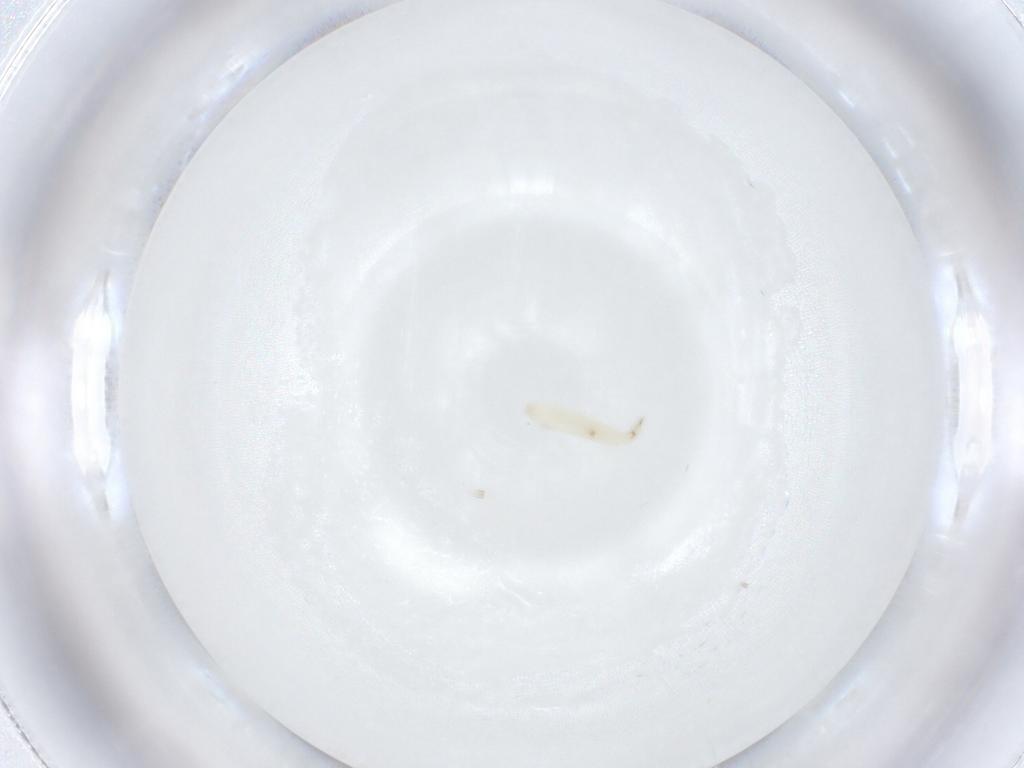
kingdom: Animalia
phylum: Arthropoda
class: Insecta
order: Diptera
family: Sarcophagidae
